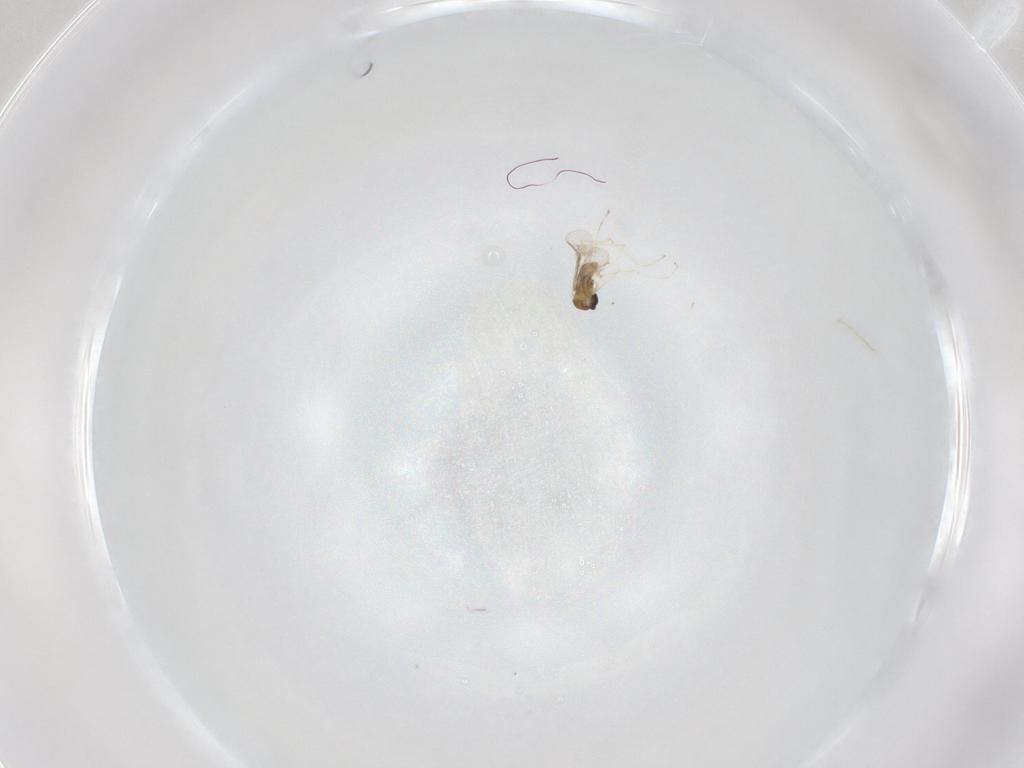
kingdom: Animalia
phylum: Arthropoda
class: Insecta
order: Diptera
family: Cecidomyiidae
